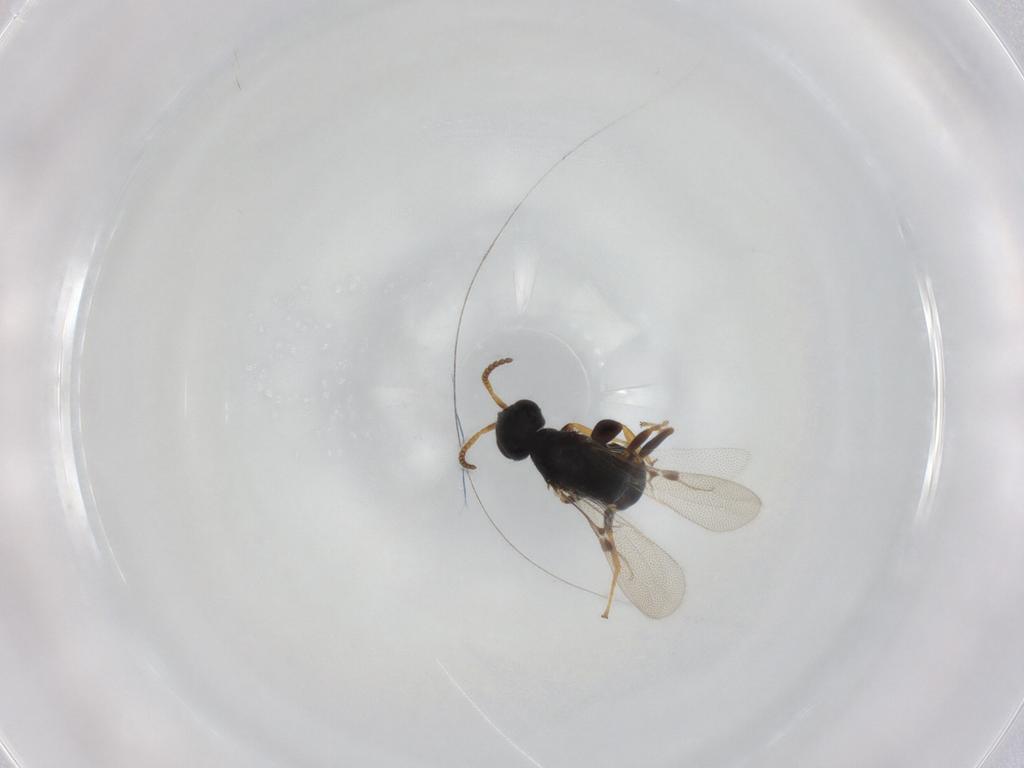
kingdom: Animalia
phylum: Arthropoda
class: Insecta
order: Hymenoptera
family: Bethylidae
